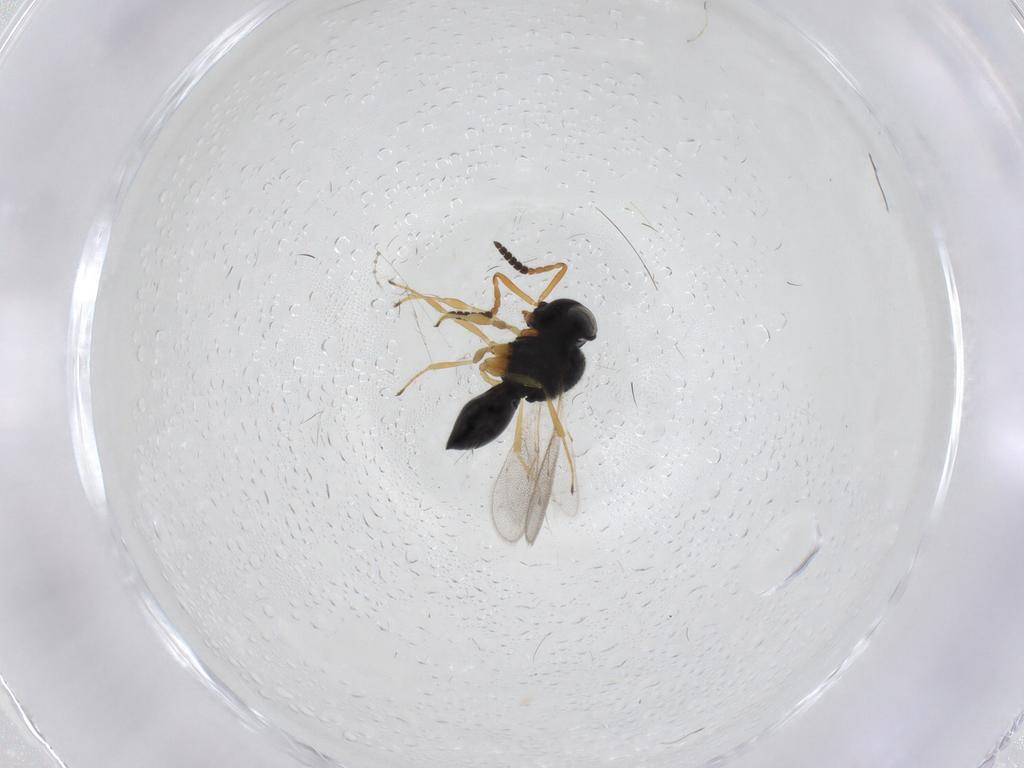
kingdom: Animalia
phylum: Arthropoda
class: Insecta
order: Hymenoptera
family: Scelionidae
